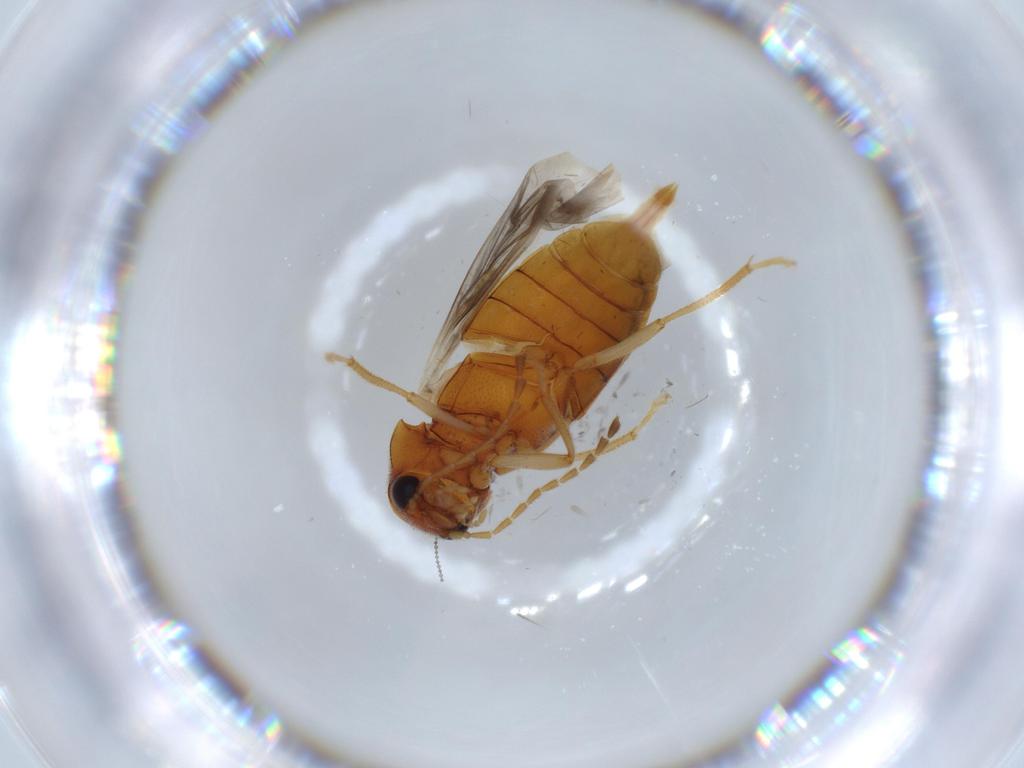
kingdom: Animalia
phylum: Arthropoda
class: Insecta
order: Coleoptera
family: Ptilodactylidae
